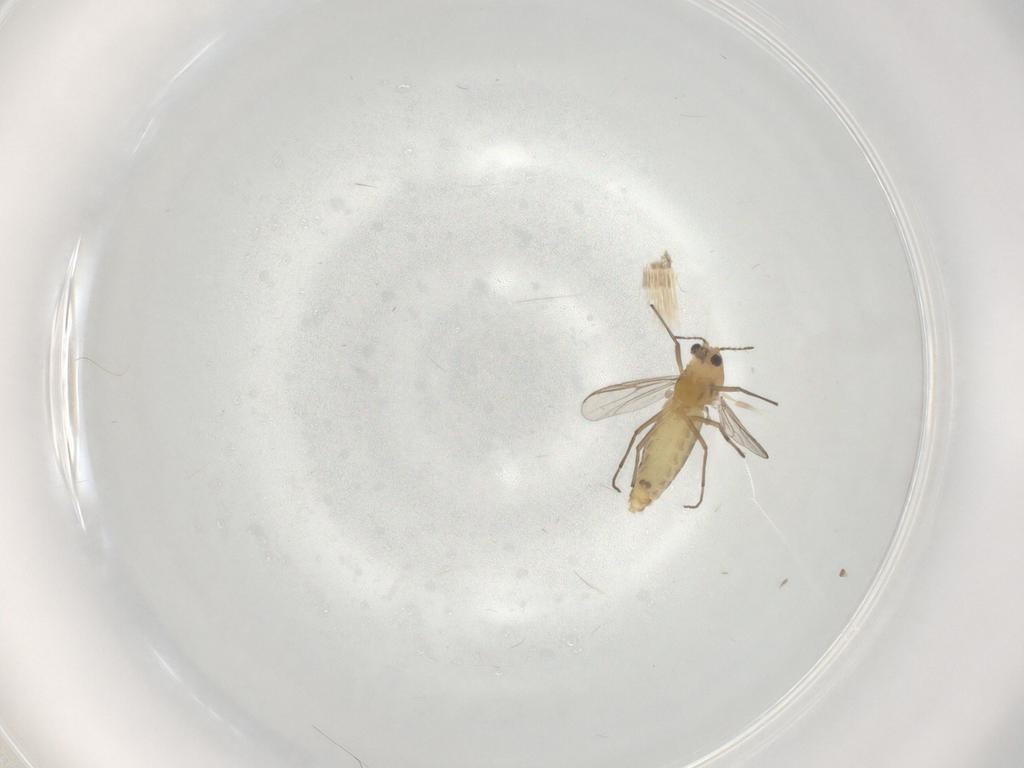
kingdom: Animalia
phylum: Arthropoda
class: Insecta
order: Diptera
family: Chironomidae
